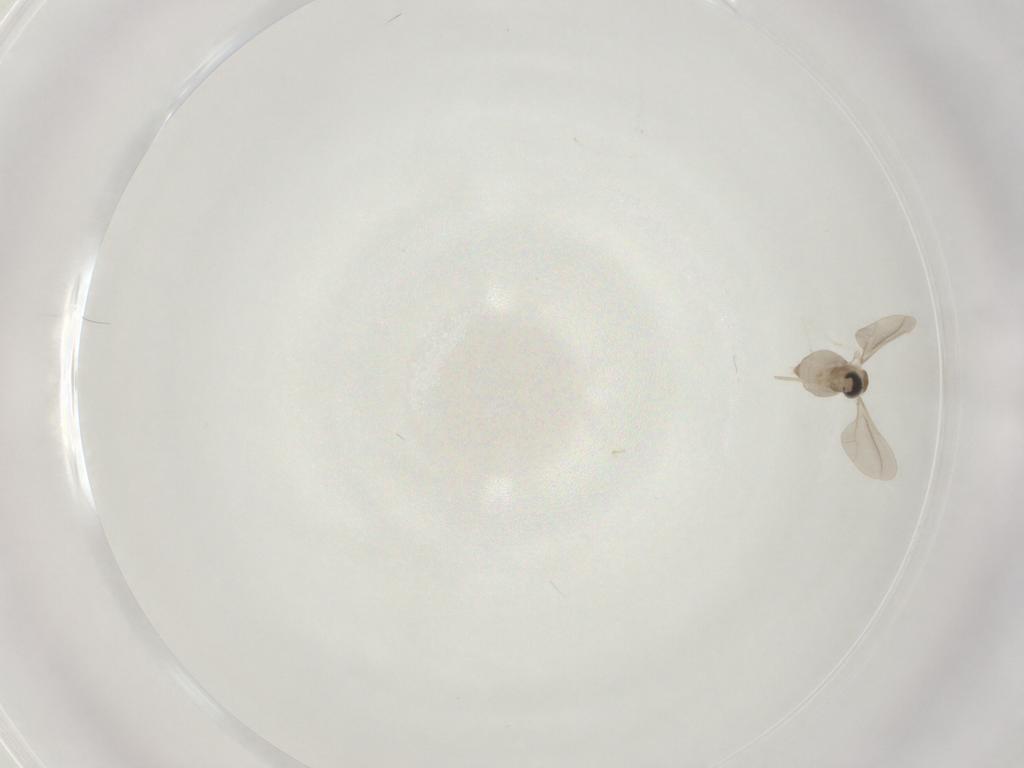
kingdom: Animalia
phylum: Arthropoda
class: Insecta
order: Diptera
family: Cecidomyiidae
